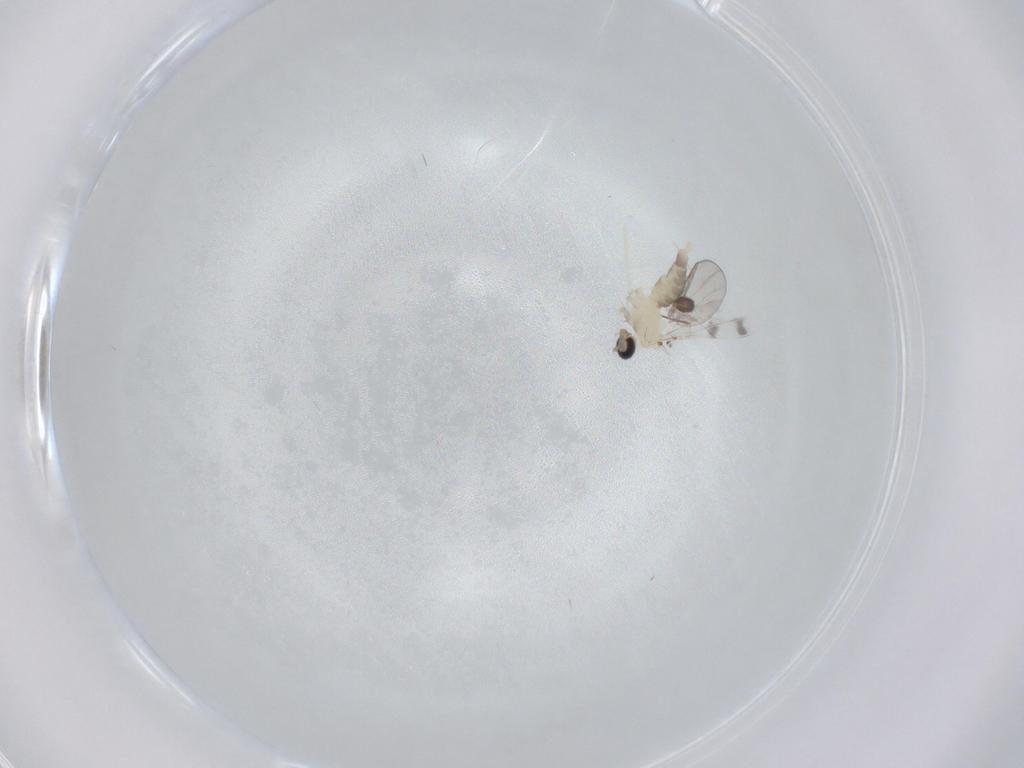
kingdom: Animalia
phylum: Arthropoda
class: Insecta
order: Diptera
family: Cecidomyiidae
